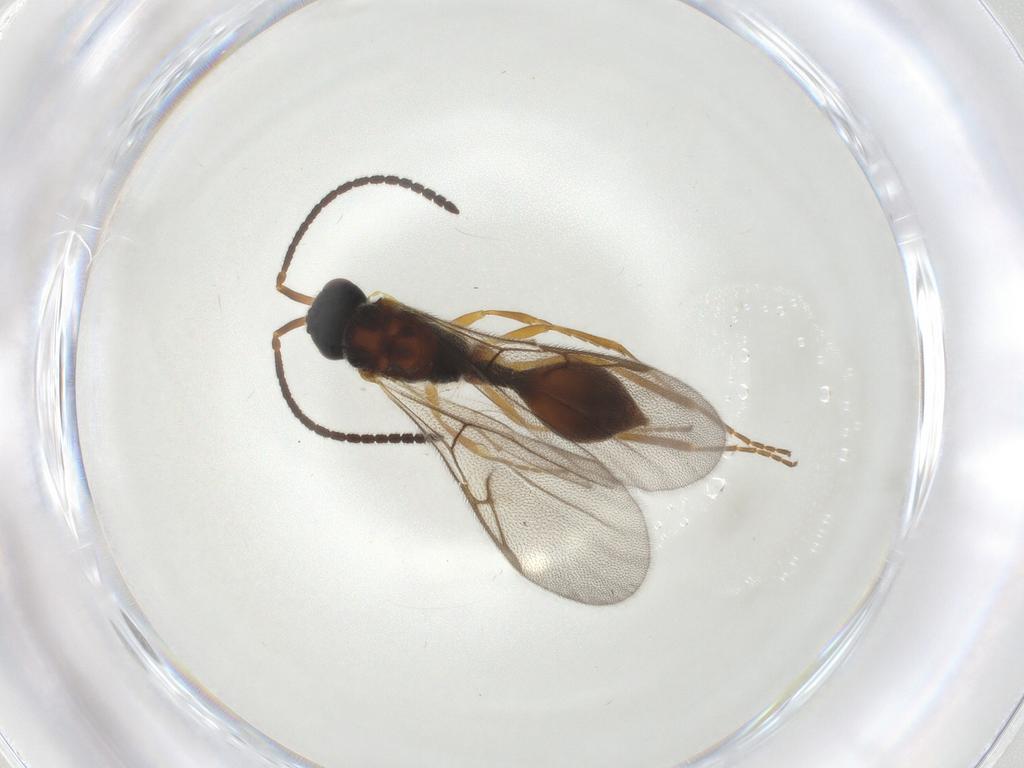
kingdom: Animalia
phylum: Arthropoda
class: Insecta
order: Hymenoptera
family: Diapriidae
